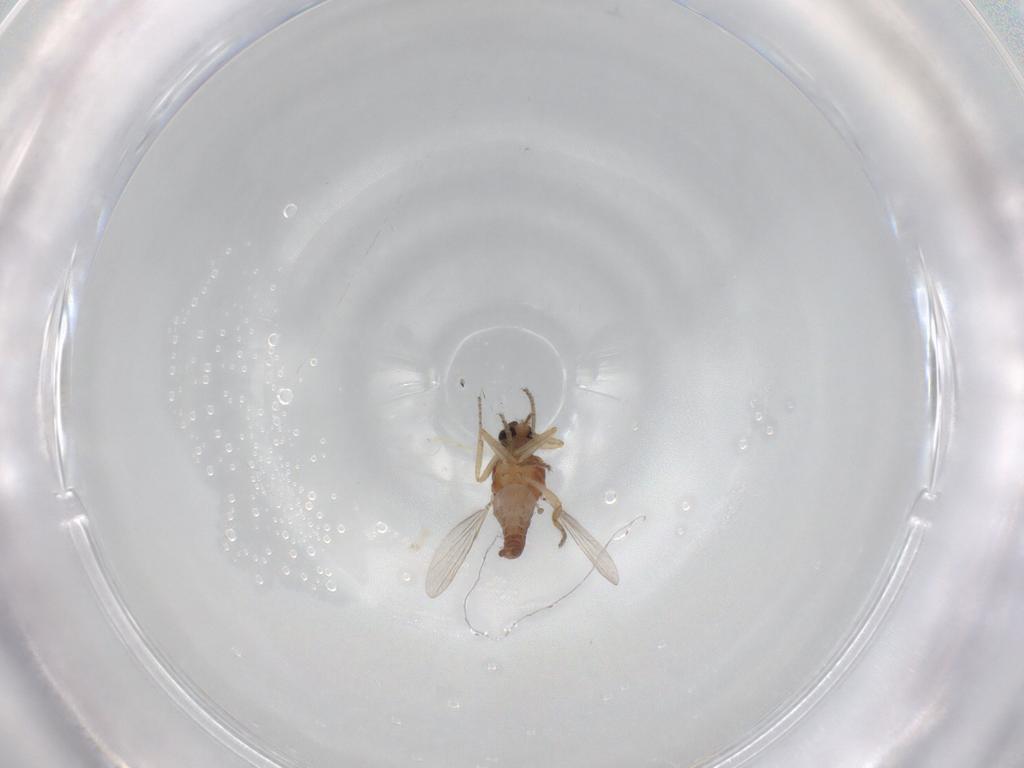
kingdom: Animalia
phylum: Arthropoda
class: Insecta
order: Diptera
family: Ceratopogonidae
